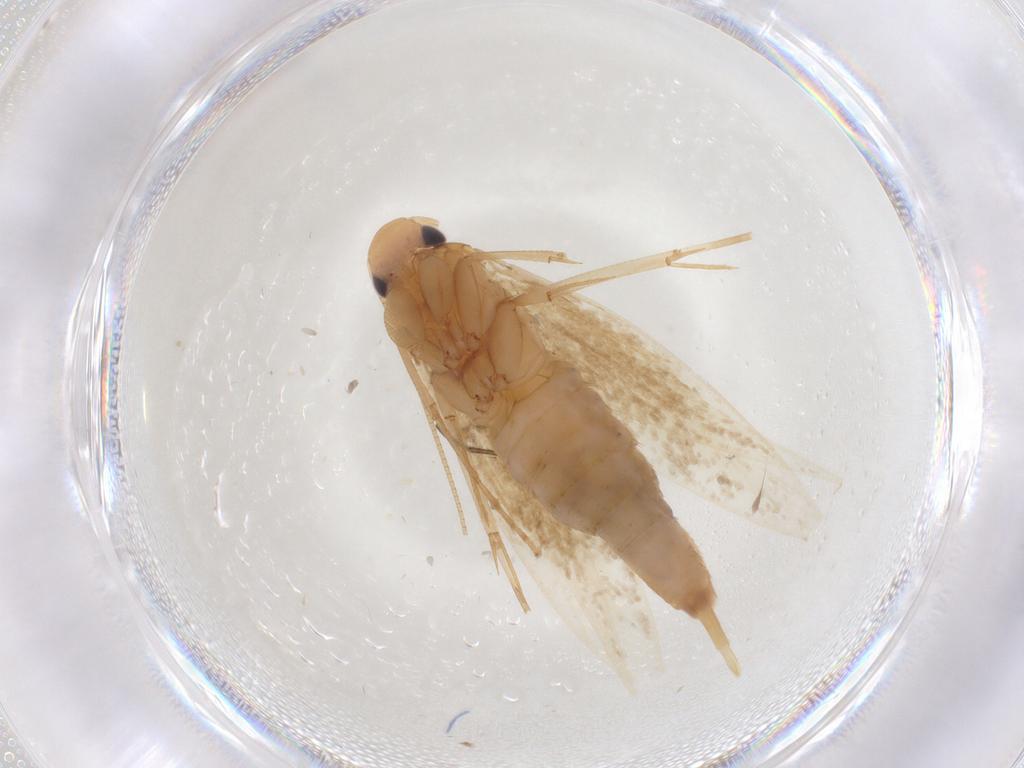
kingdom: Animalia
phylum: Arthropoda
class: Insecta
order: Lepidoptera
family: Tineidae
